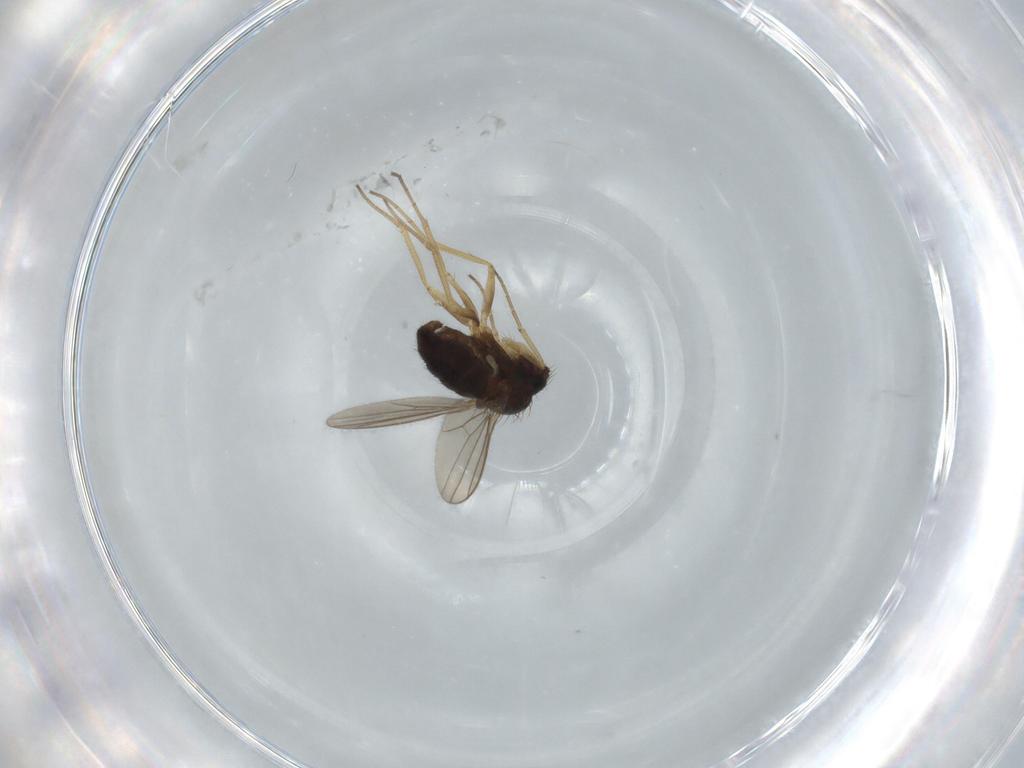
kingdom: Animalia
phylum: Arthropoda
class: Insecta
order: Diptera
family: Dolichopodidae
